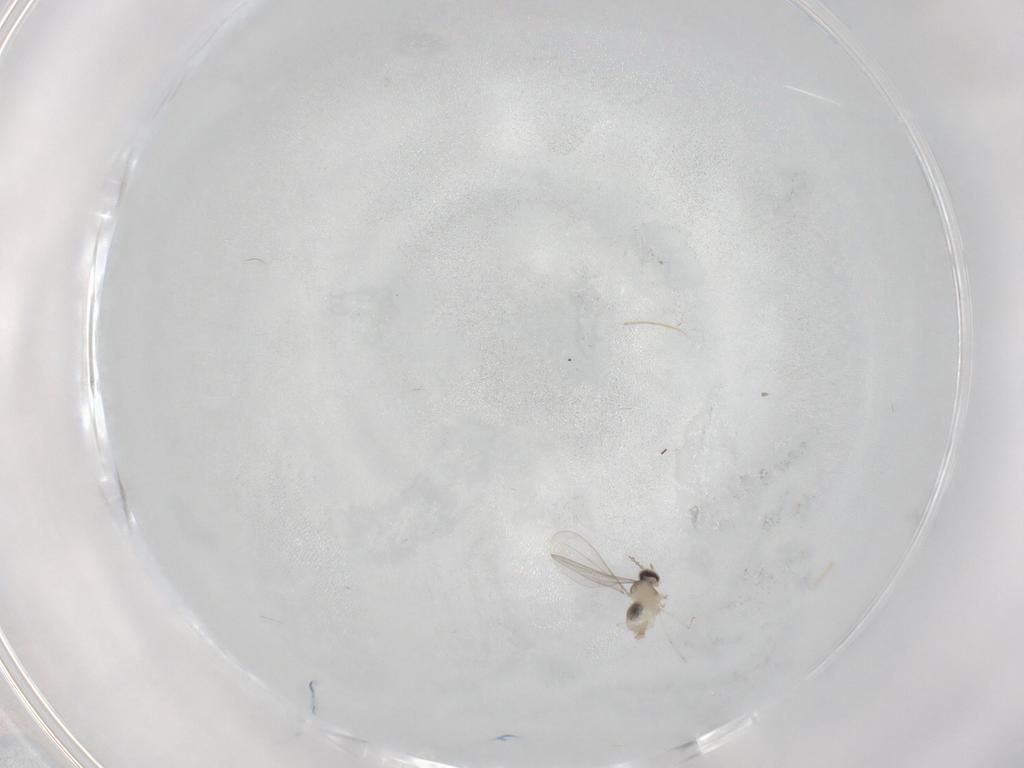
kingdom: Animalia
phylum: Arthropoda
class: Insecta
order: Diptera
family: Cecidomyiidae
